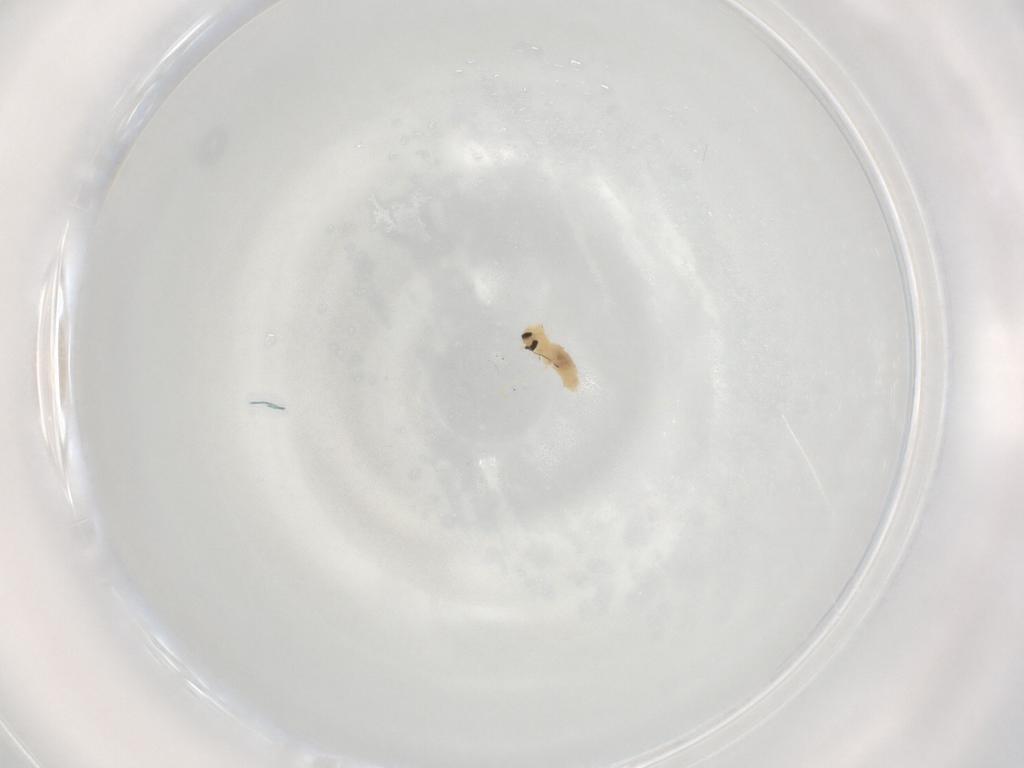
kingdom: Animalia
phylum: Arthropoda
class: Insecta
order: Diptera
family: Cecidomyiidae
